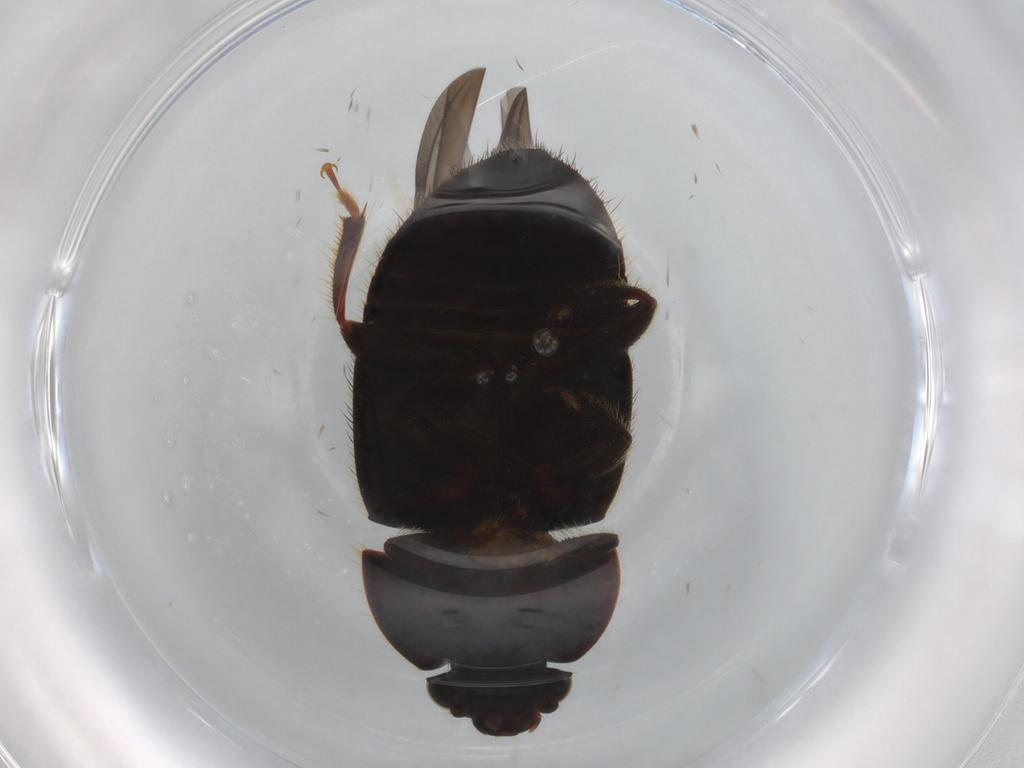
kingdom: Animalia
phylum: Arthropoda
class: Insecta
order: Coleoptera
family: Nitidulidae
